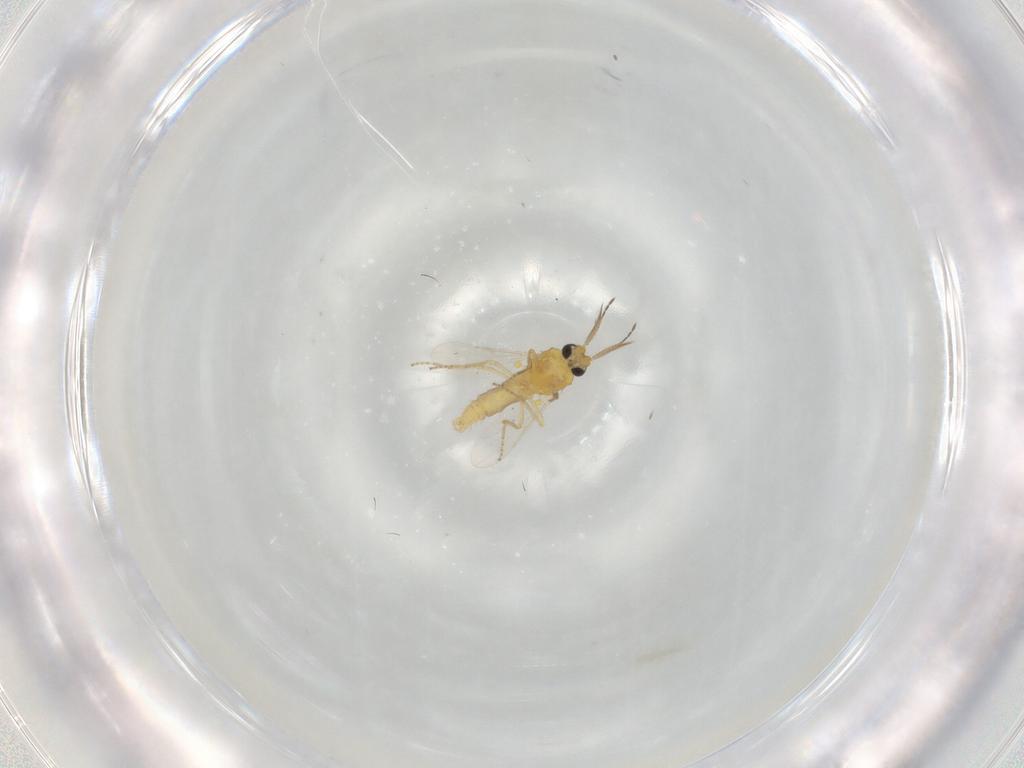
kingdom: Animalia
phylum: Arthropoda
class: Insecta
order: Diptera
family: Ceratopogonidae
